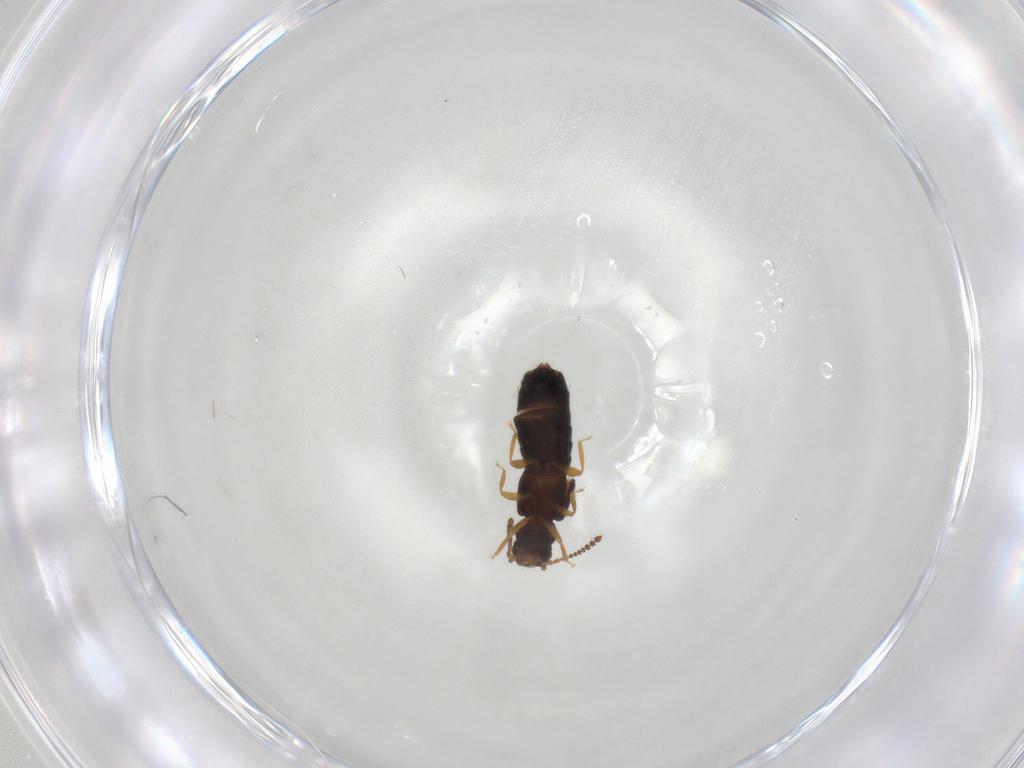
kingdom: Animalia
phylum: Arthropoda
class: Insecta
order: Coleoptera
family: Staphylinidae
